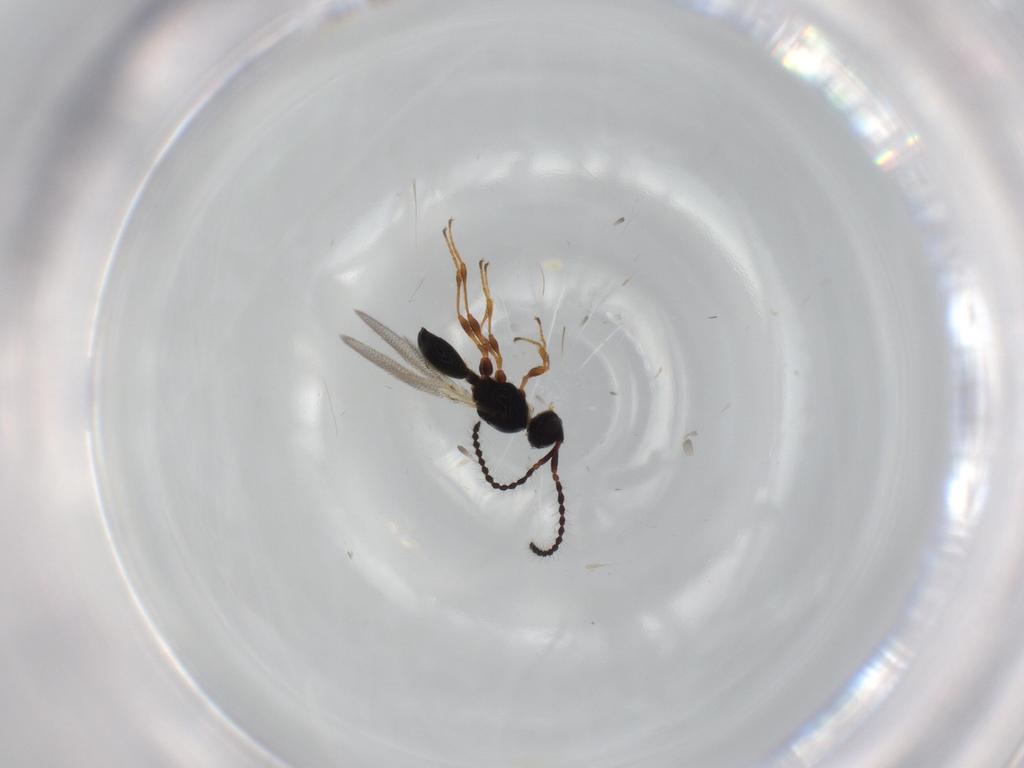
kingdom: Animalia
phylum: Arthropoda
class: Insecta
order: Hymenoptera
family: Diapriidae
